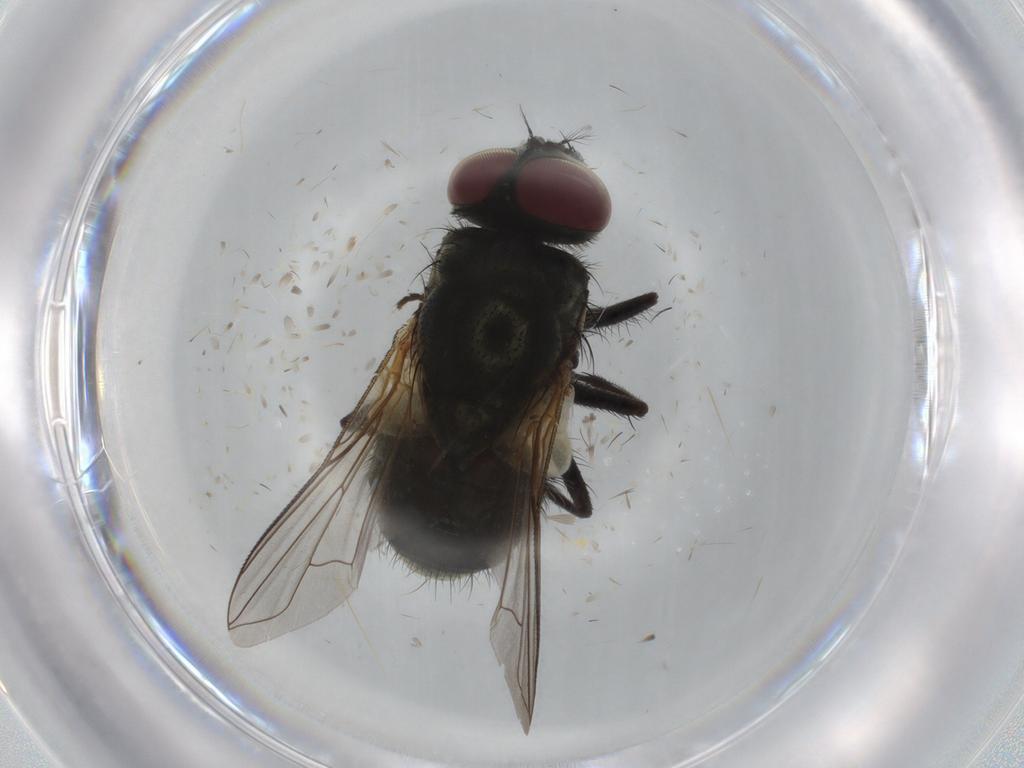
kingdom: Animalia
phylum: Arthropoda
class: Insecta
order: Diptera
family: Muscidae
